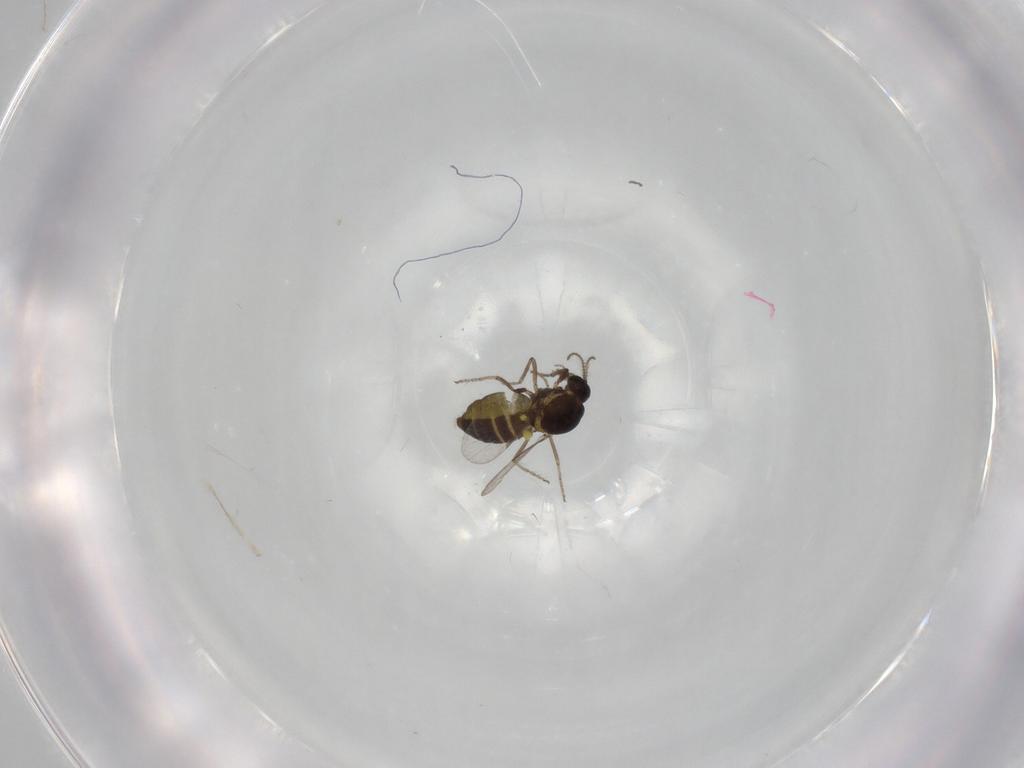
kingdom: Animalia
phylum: Arthropoda
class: Insecta
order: Diptera
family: Ceratopogonidae
